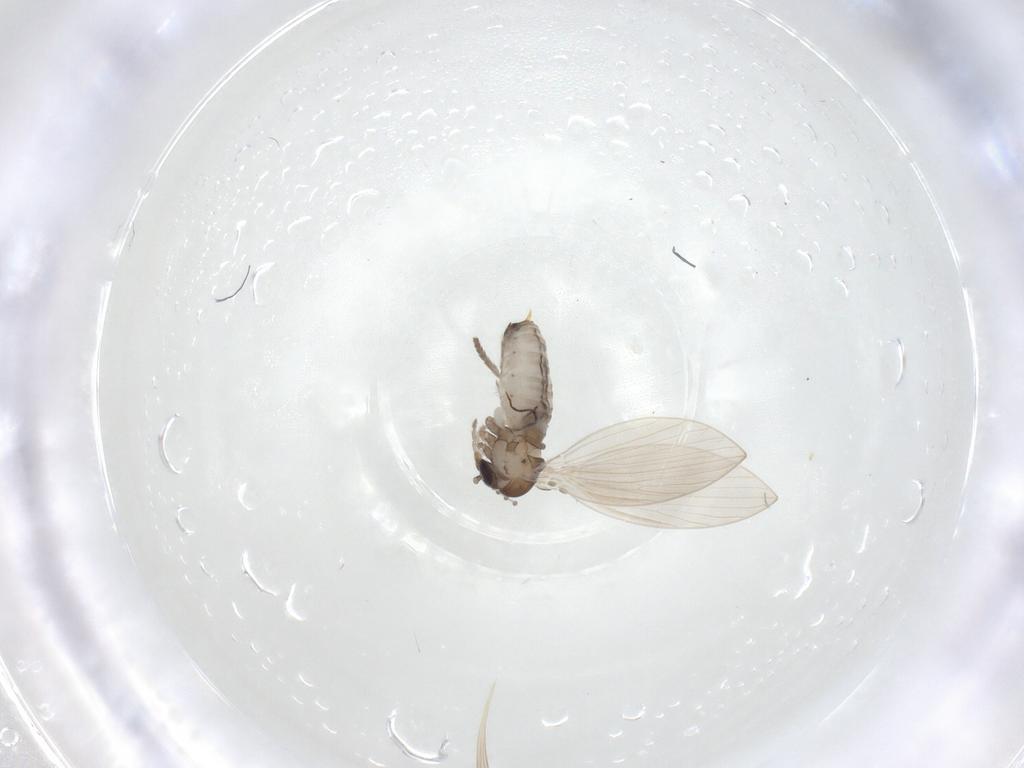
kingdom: Animalia
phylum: Arthropoda
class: Insecta
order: Diptera
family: Psychodidae
